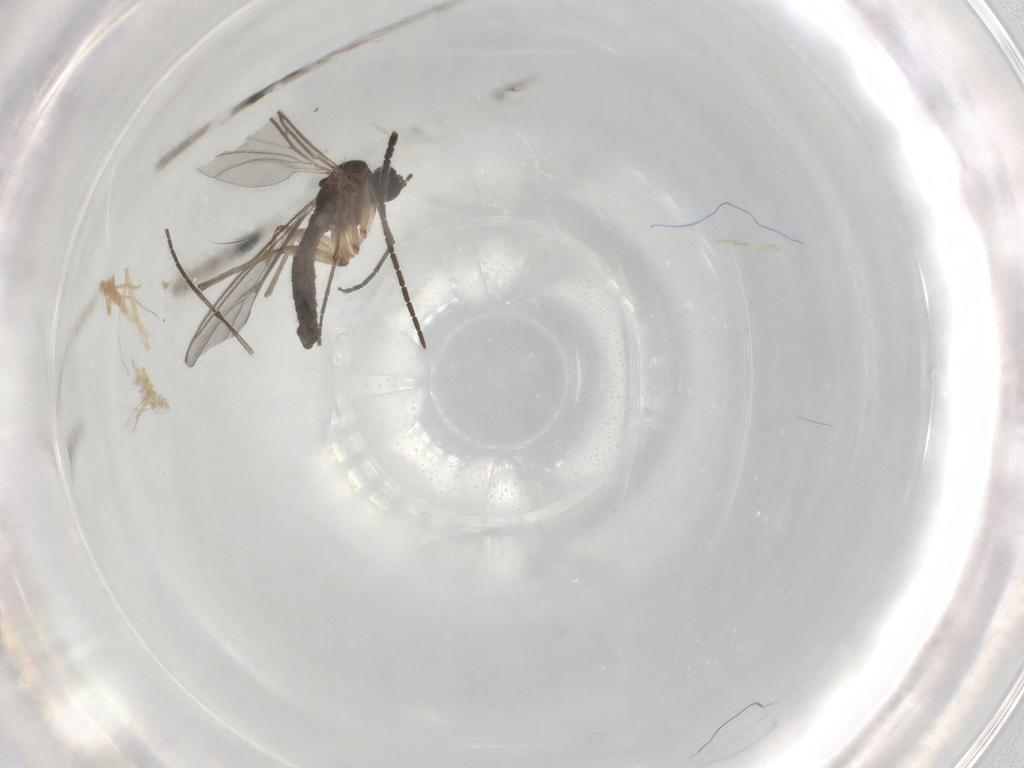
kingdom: Animalia
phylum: Arthropoda
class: Insecta
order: Diptera
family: Sciaridae
